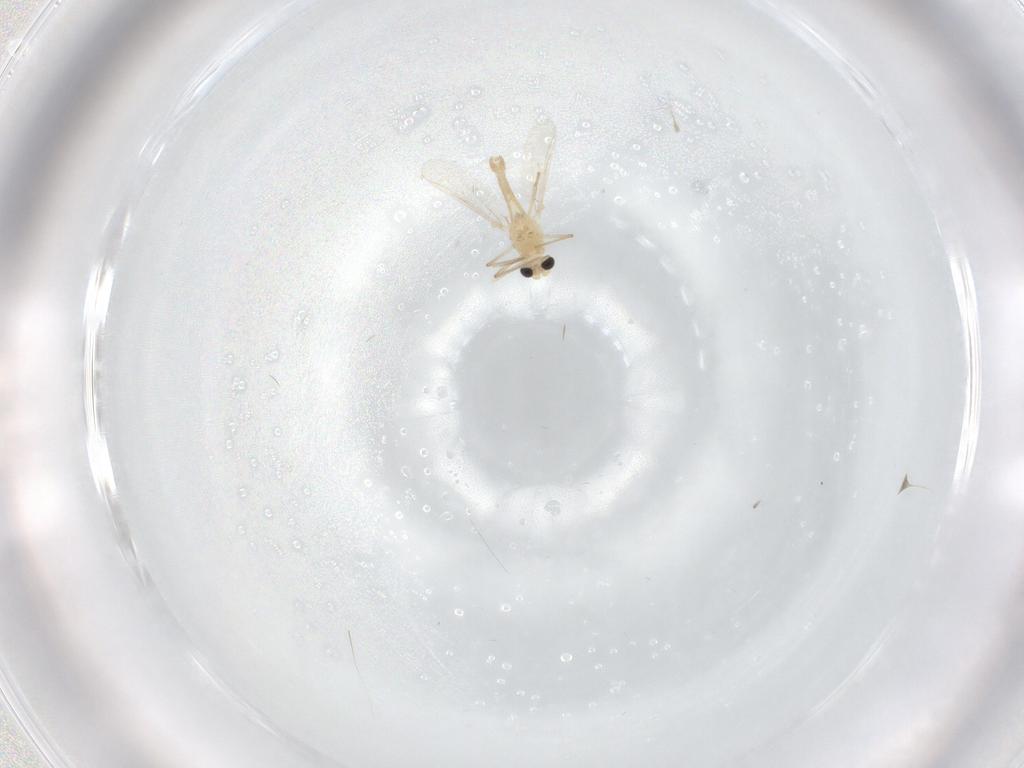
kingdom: Animalia
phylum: Arthropoda
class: Insecta
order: Diptera
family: Chironomidae
